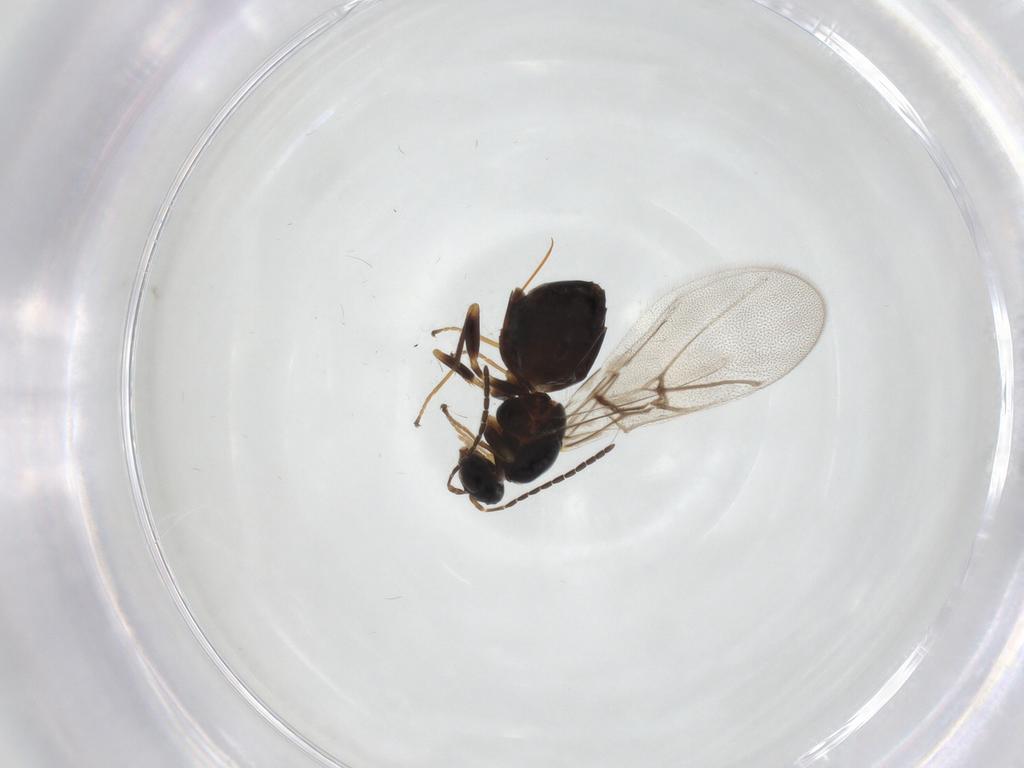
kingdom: Animalia
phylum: Arthropoda
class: Insecta
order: Hymenoptera
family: Cynipidae
